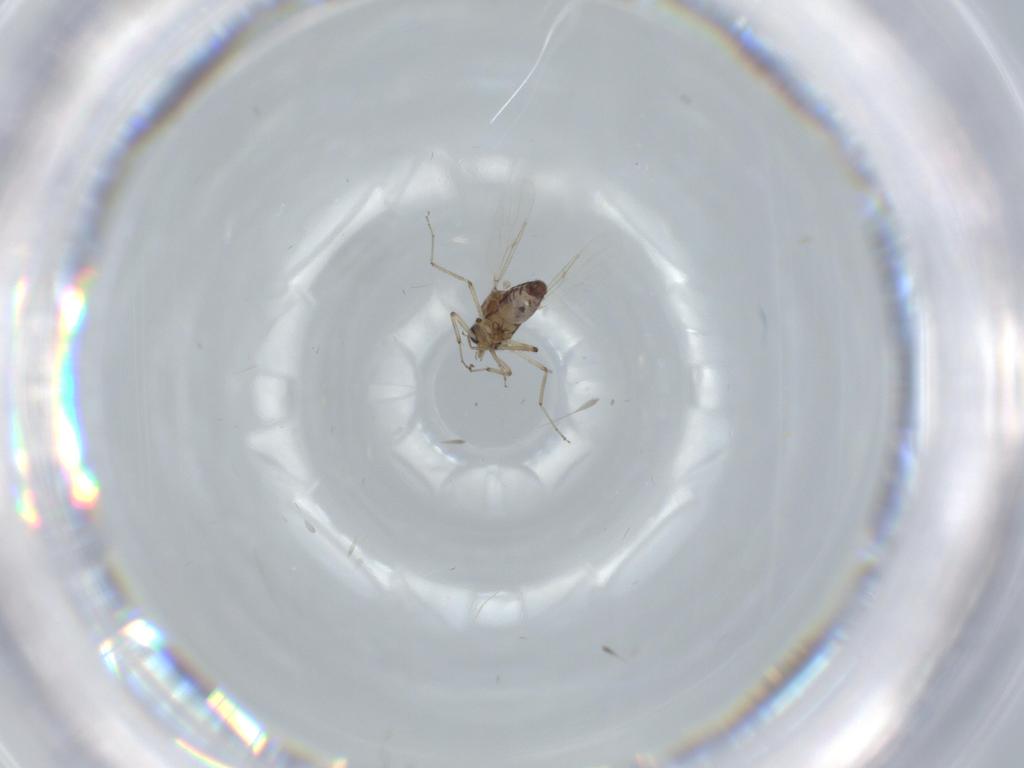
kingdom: Animalia
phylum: Arthropoda
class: Insecta
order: Diptera
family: Ceratopogonidae
